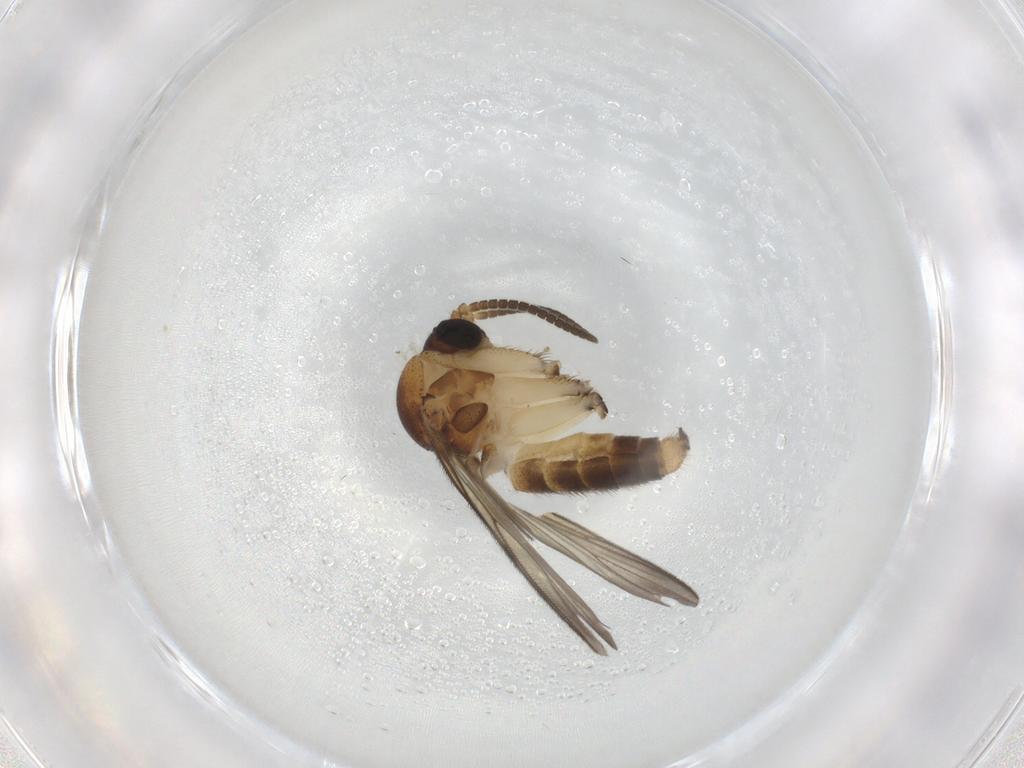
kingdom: Animalia
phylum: Arthropoda
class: Insecta
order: Diptera
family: Mycetophilidae
